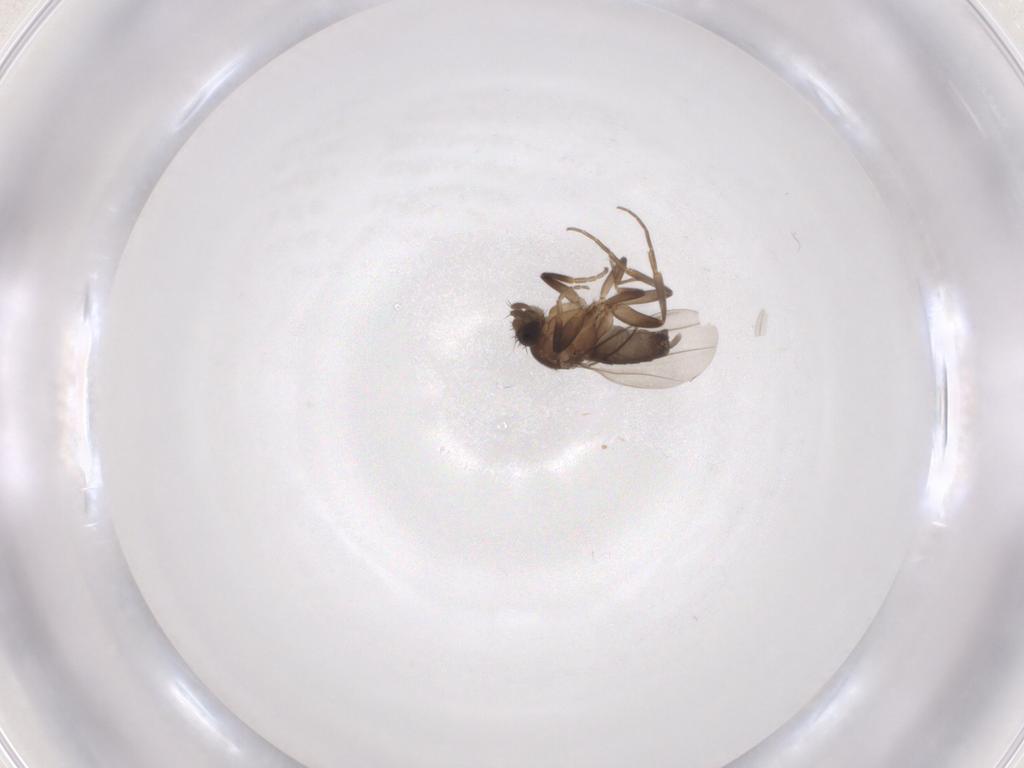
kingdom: Animalia
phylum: Arthropoda
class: Insecta
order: Diptera
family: Phoridae
